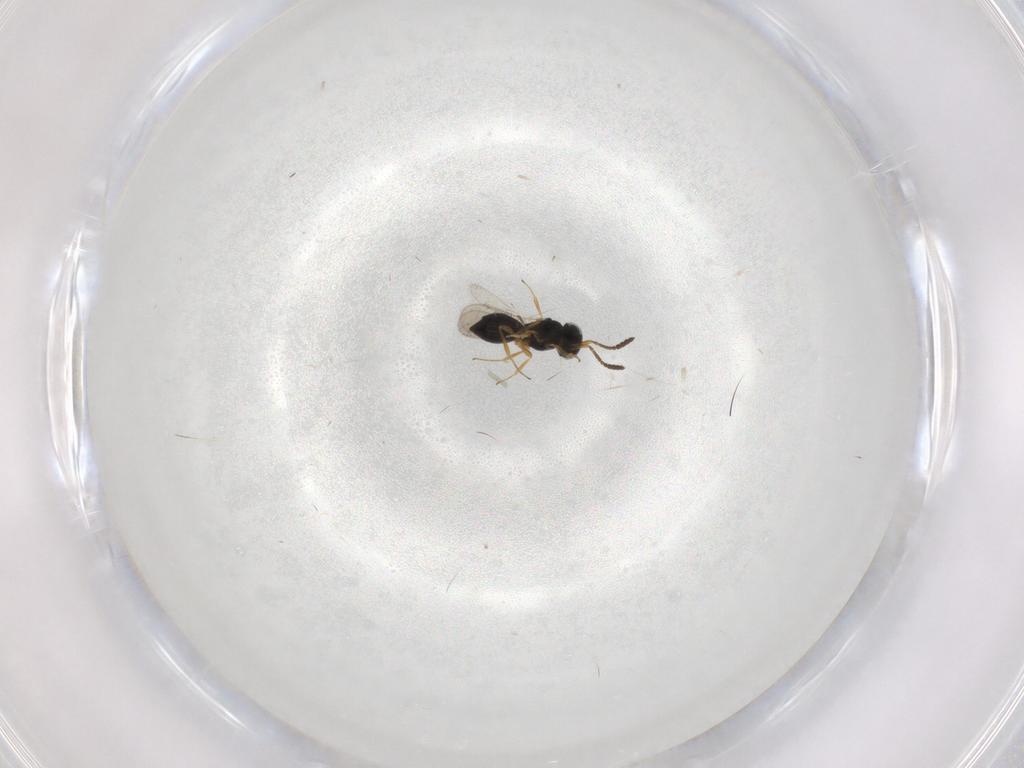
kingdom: Animalia
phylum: Arthropoda
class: Insecta
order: Hymenoptera
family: Scelionidae
